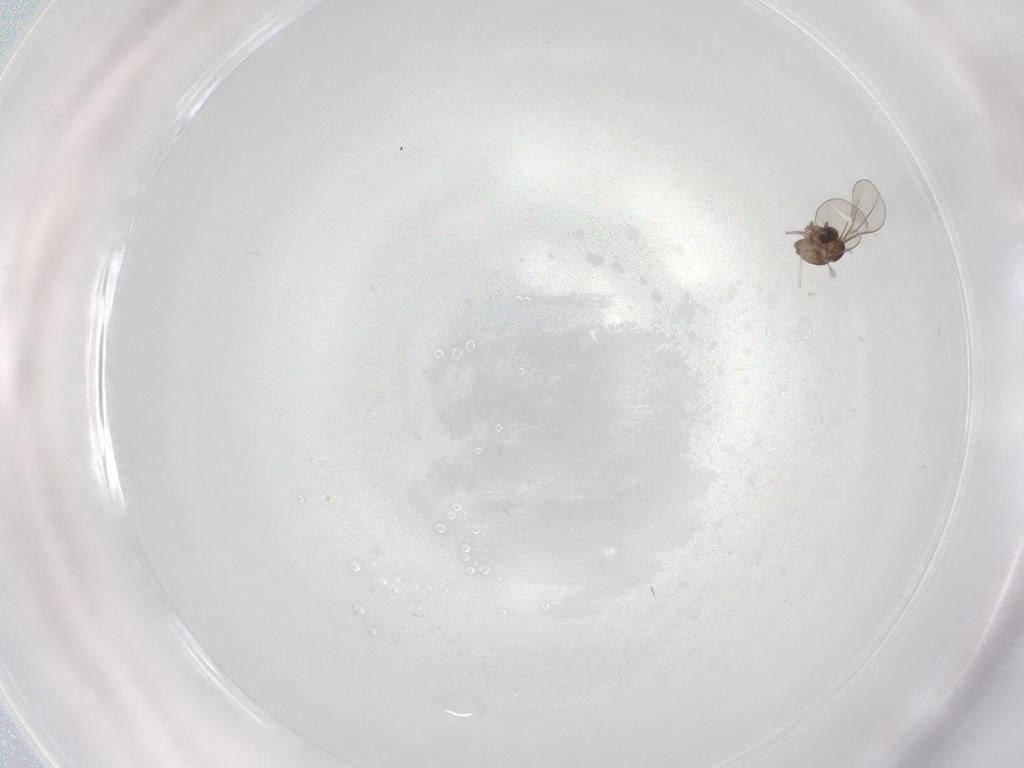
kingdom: Animalia
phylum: Arthropoda
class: Insecta
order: Diptera
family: Cecidomyiidae
